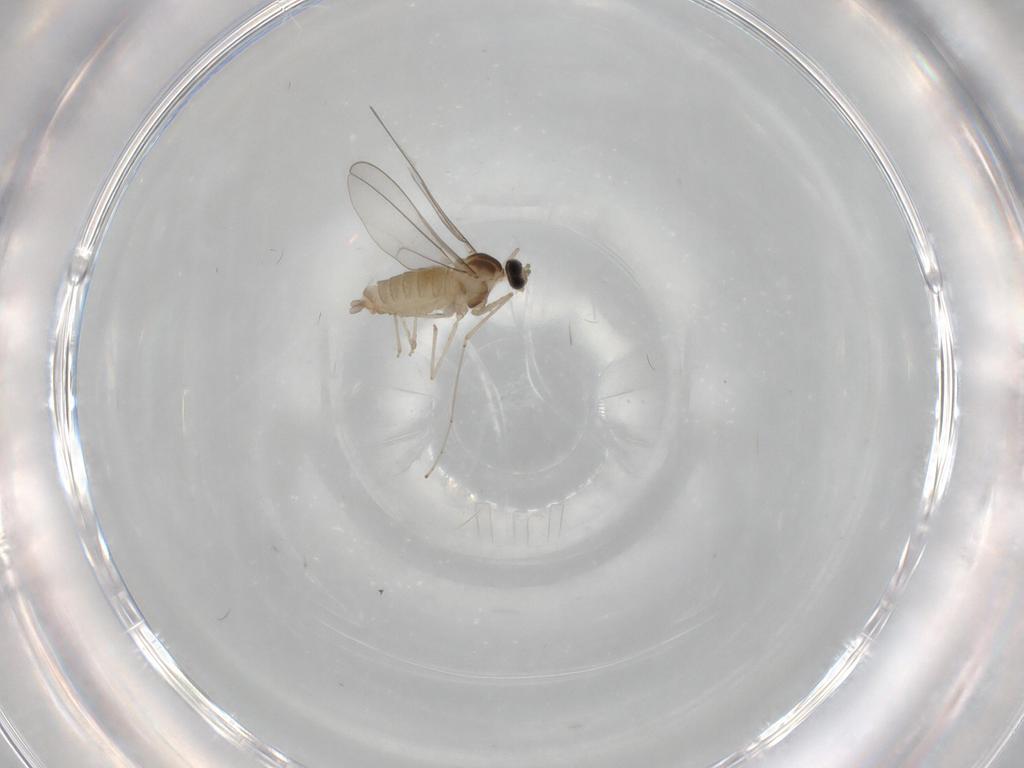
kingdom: Animalia
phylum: Arthropoda
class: Insecta
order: Diptera
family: Cecidomyiidae
